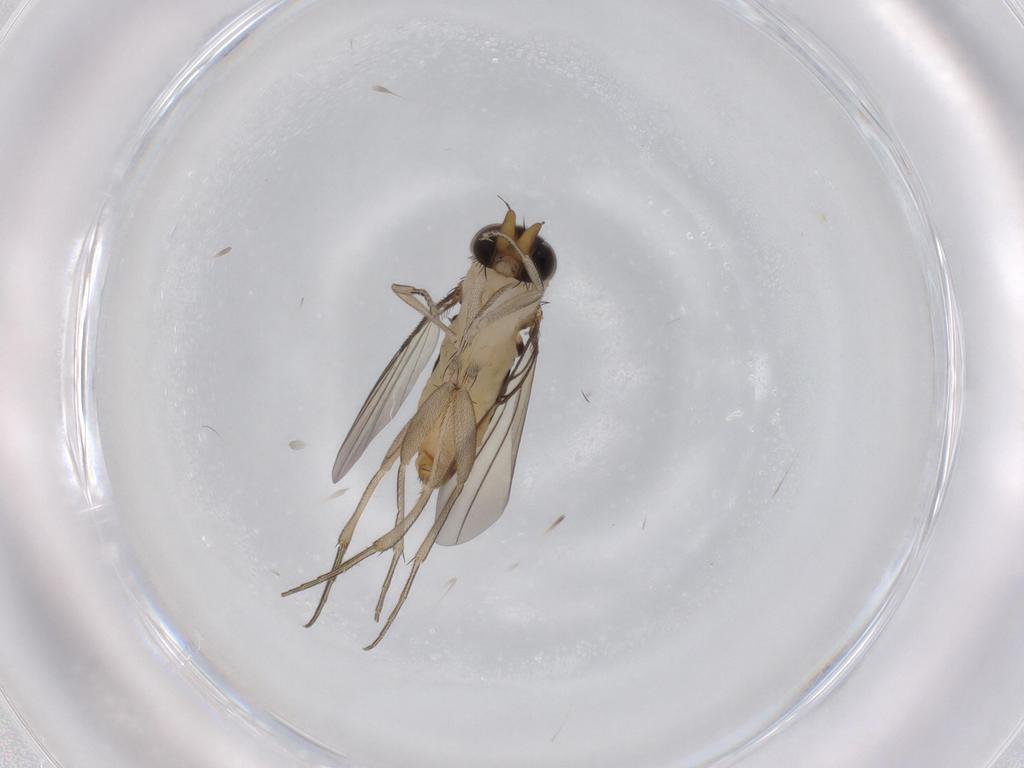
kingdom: Animalia
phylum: Arthropoda
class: Insecta
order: Diptera
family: Phoridae
